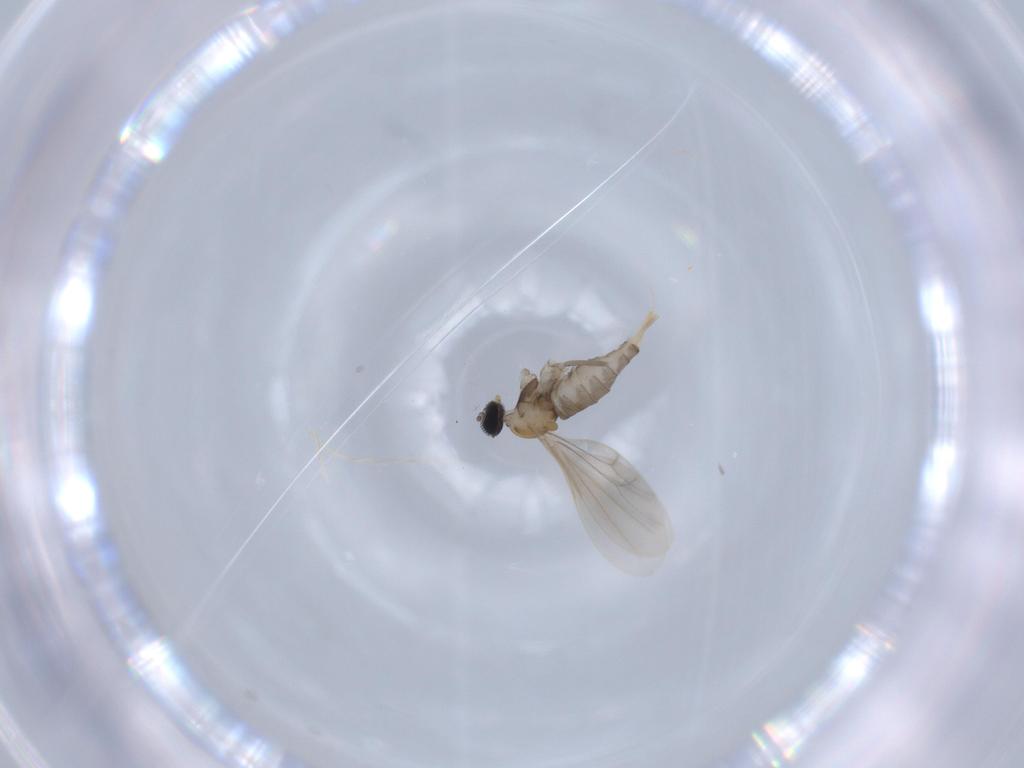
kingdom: Animalia
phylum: Arthropoda
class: Insecta
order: Diptera
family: Cecidomyiidae
